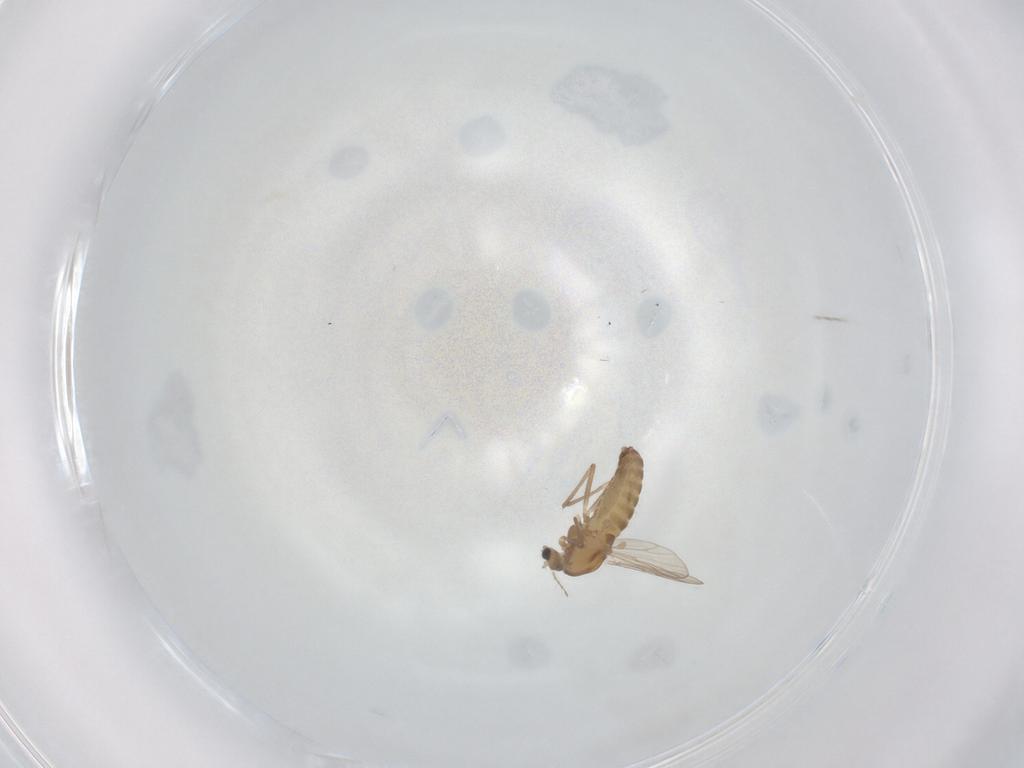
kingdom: Animalia
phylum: Arthropoda
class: Insecta
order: Diptera
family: Chironomidae
